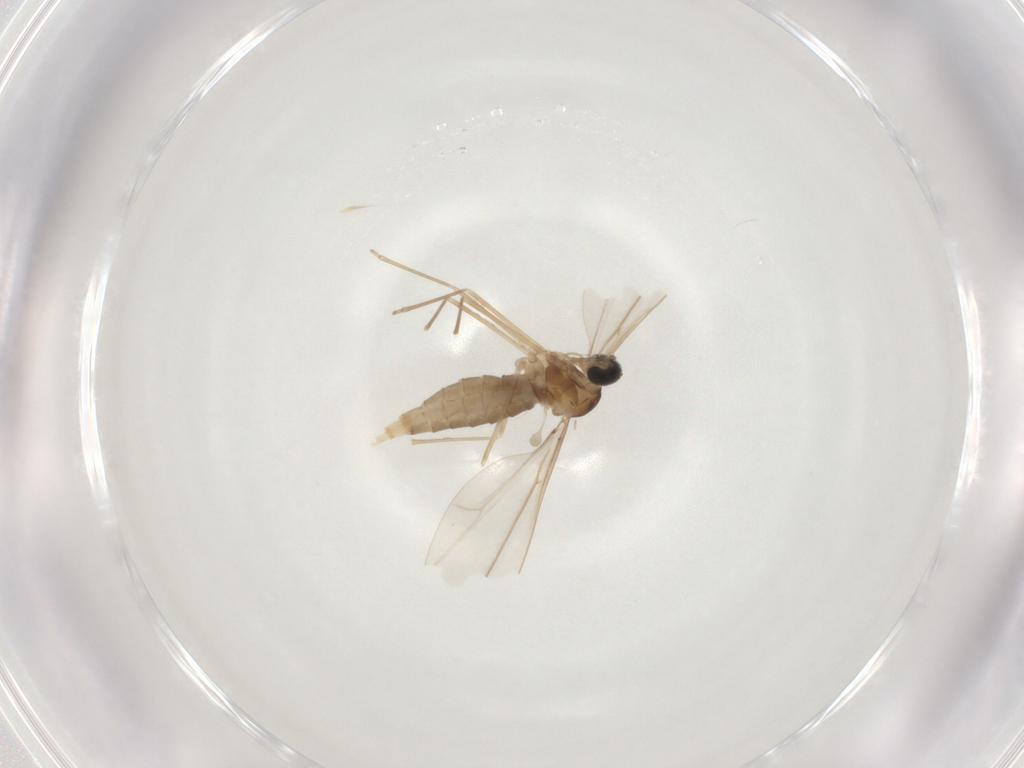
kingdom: Animalia
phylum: Arthropoda
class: Insecta
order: Diptera
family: Cecidomyiidae
